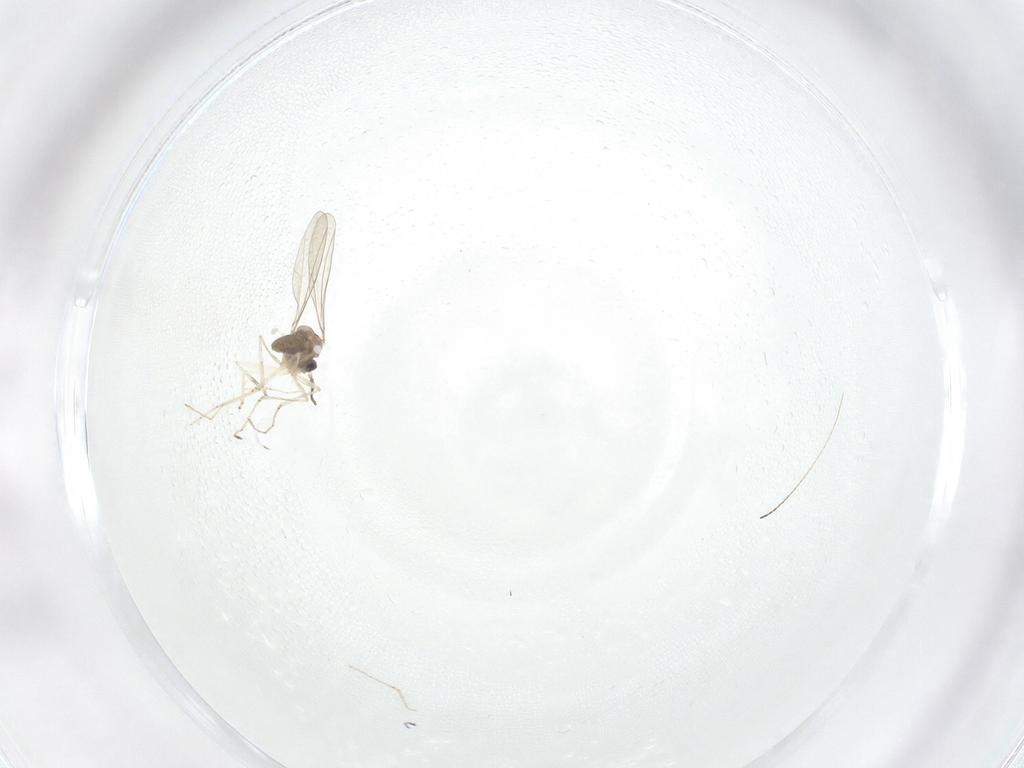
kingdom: Animalia
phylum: Arthropoda
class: Insecta
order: Diptera
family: Cecidomyiidae
